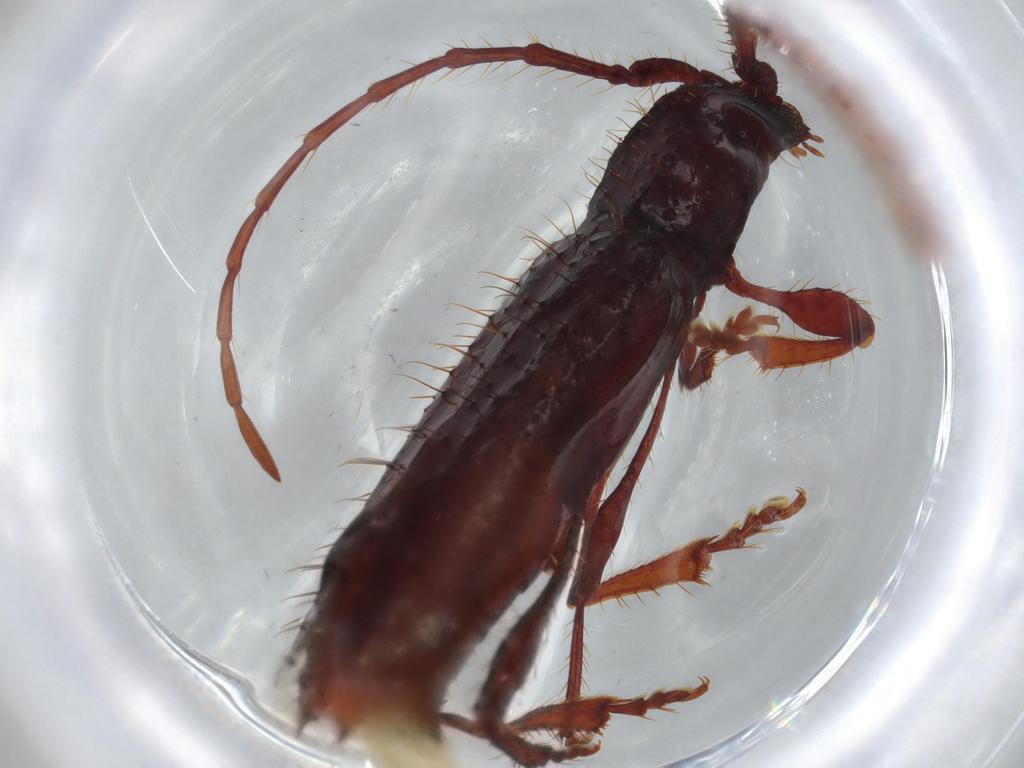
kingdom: Animalia
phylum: Arthropoda
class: Insecta
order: Coleoptera
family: Cerambycidae
